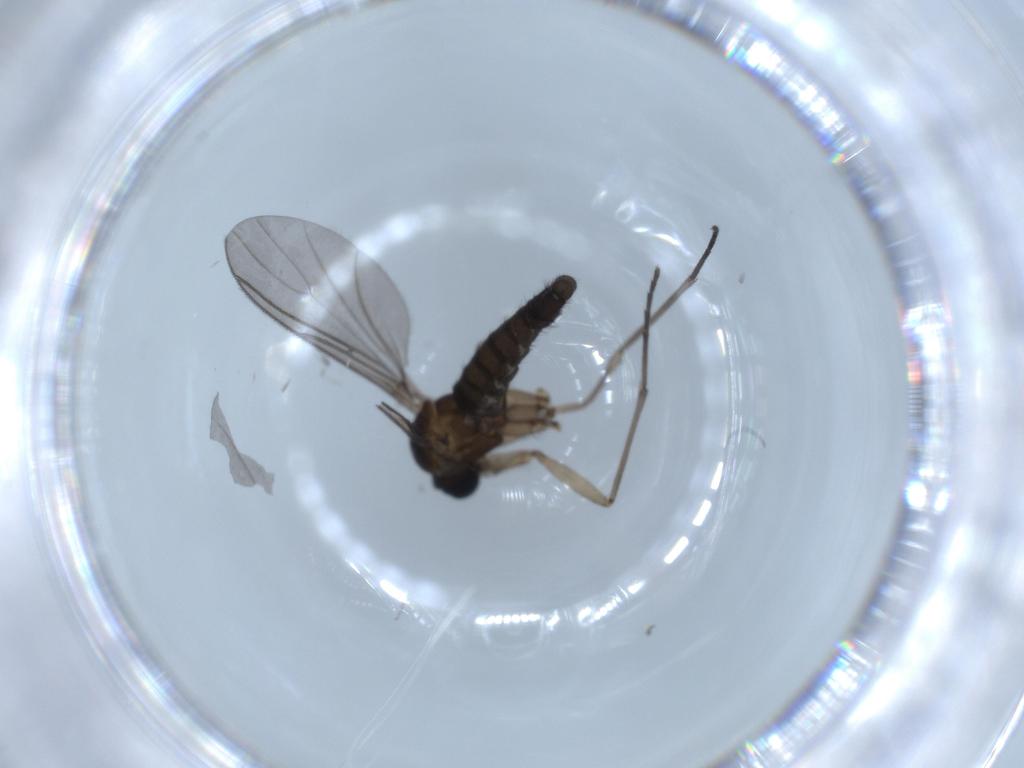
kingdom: Animalia
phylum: Arthropoda
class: Insecta
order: Diptera
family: Sciaridae
